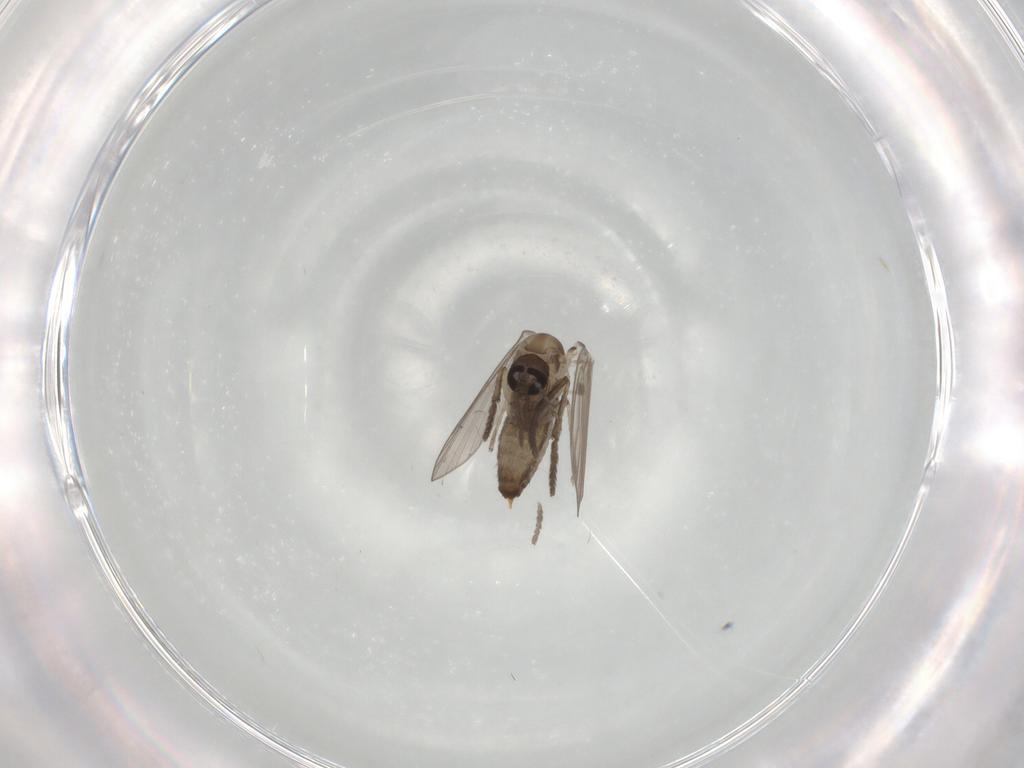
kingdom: Animalia
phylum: Arthropoda
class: Insecta
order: Diptera
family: Psychodidae
